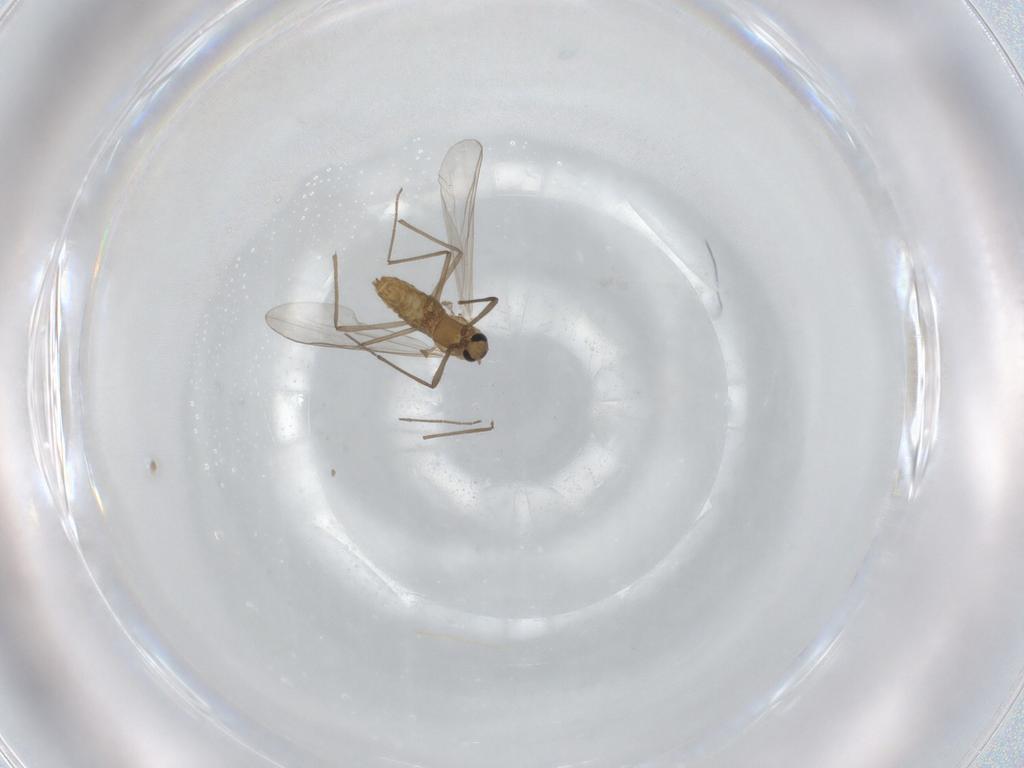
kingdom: Animalia
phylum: Arthropoda
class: Insecta
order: Diptera
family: Chironomidae
